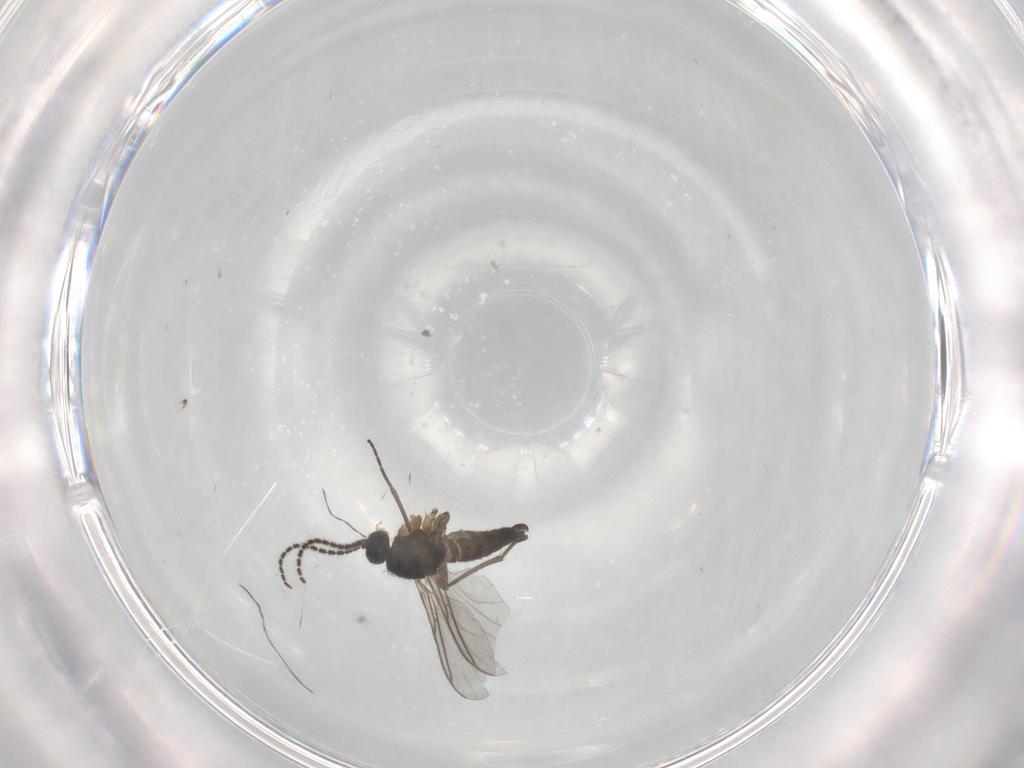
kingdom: Animalia
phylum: Arthropoda
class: Insecta
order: Diptera
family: Sciaridae
